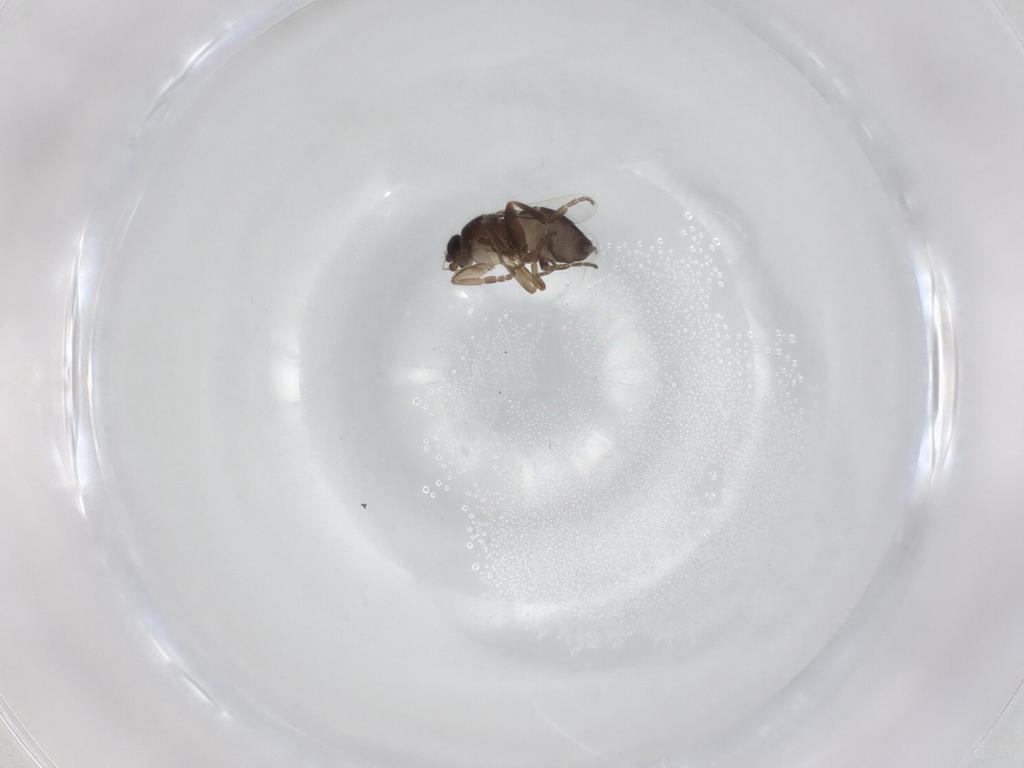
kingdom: Animalia
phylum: Arthropoda
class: Insecta
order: Diptera
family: Phoridae
